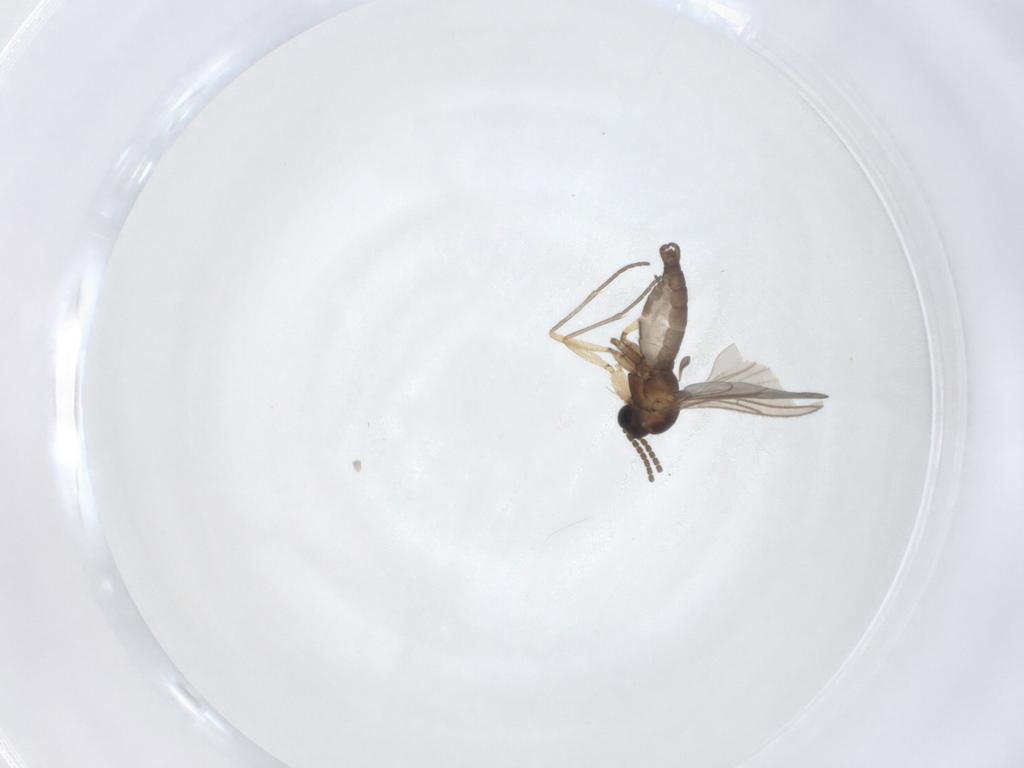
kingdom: Animalia
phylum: Arthropoda
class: Insecta
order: Diptera
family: Sciaridae
